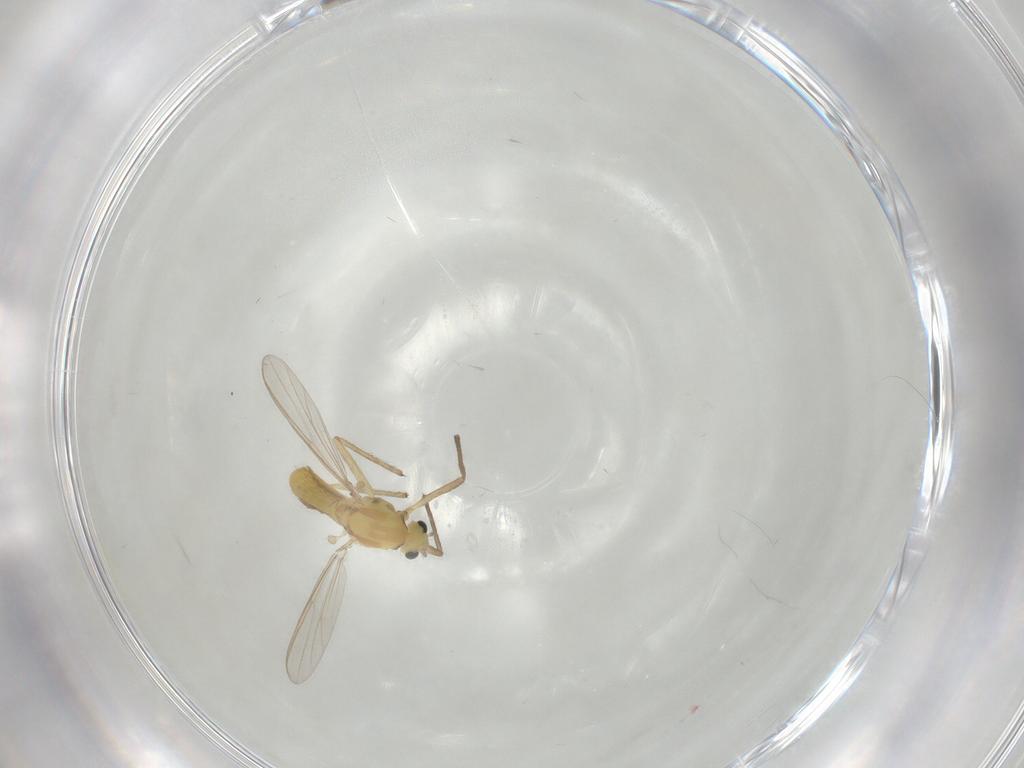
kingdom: Animalia
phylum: Arthropoda
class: Insecta
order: Diptera
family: Chironomidae
